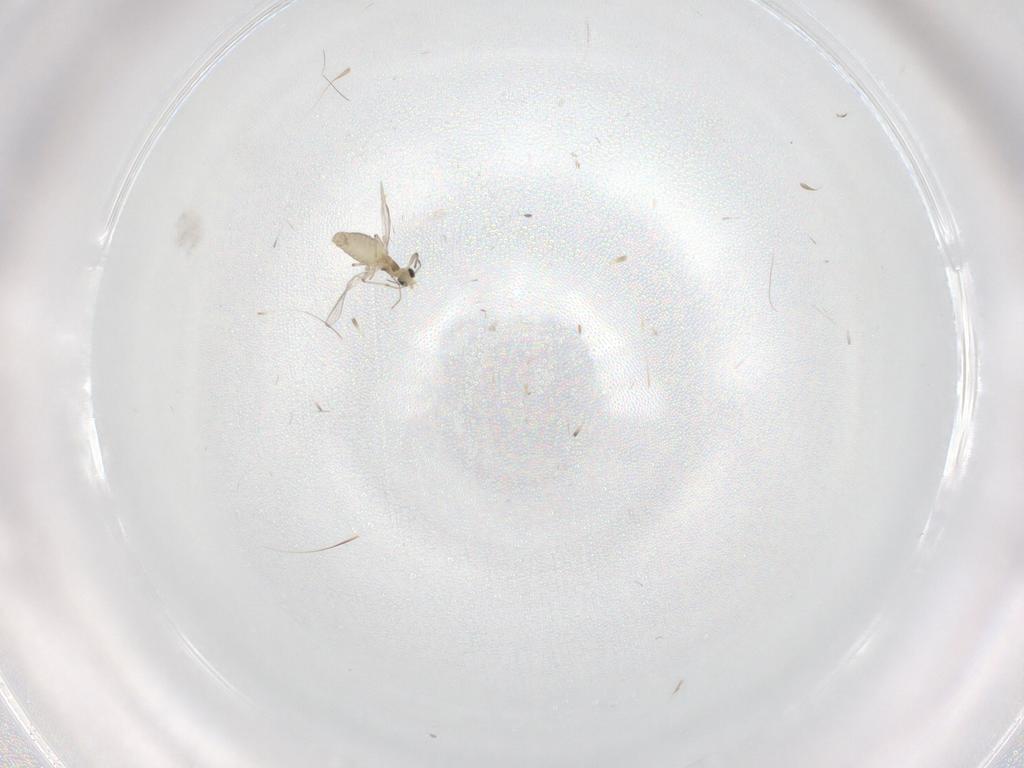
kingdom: Animalia
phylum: Arthropoda
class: Insecta
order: Diptera
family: Chironomidae
